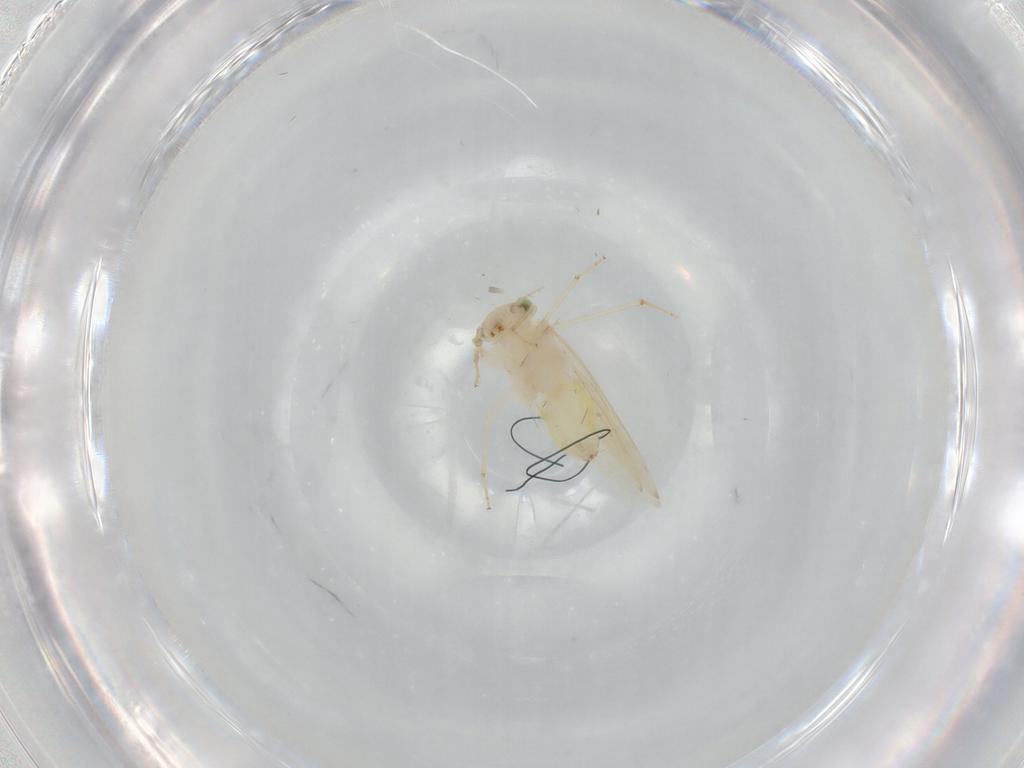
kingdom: Animalia
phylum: Arthropoda
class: Insecta
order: Psocodea
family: Lepidopsocidae
